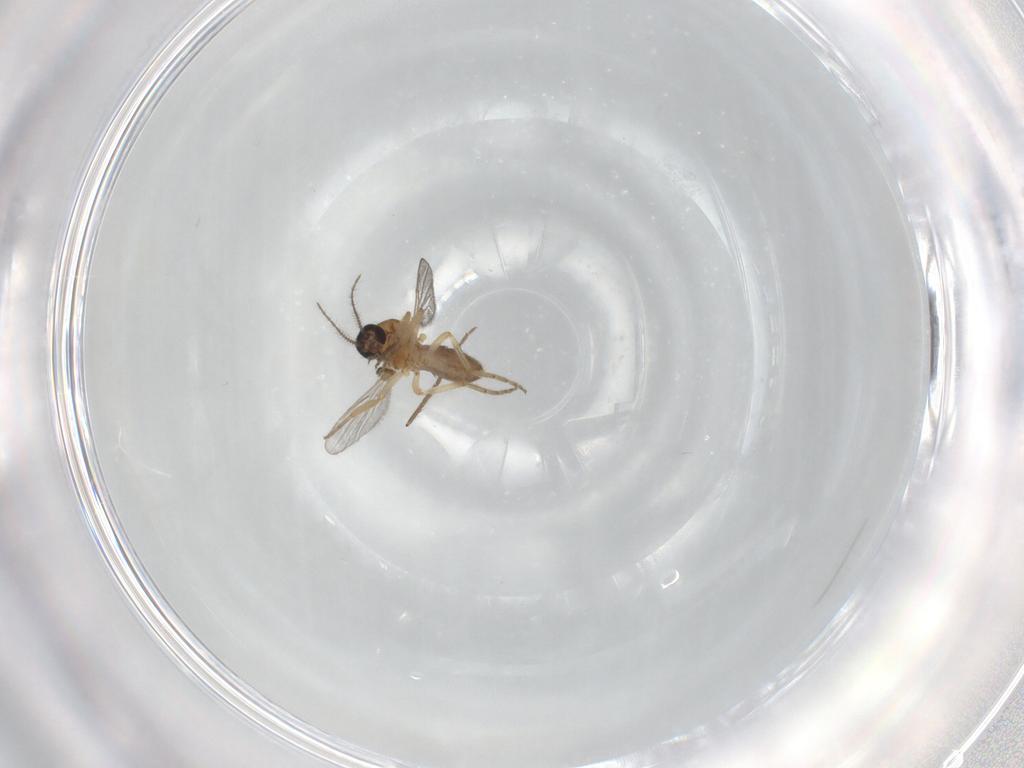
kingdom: Animalia
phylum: Arthropoda
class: Insecta
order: Diptera
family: Ceratopogonidae
